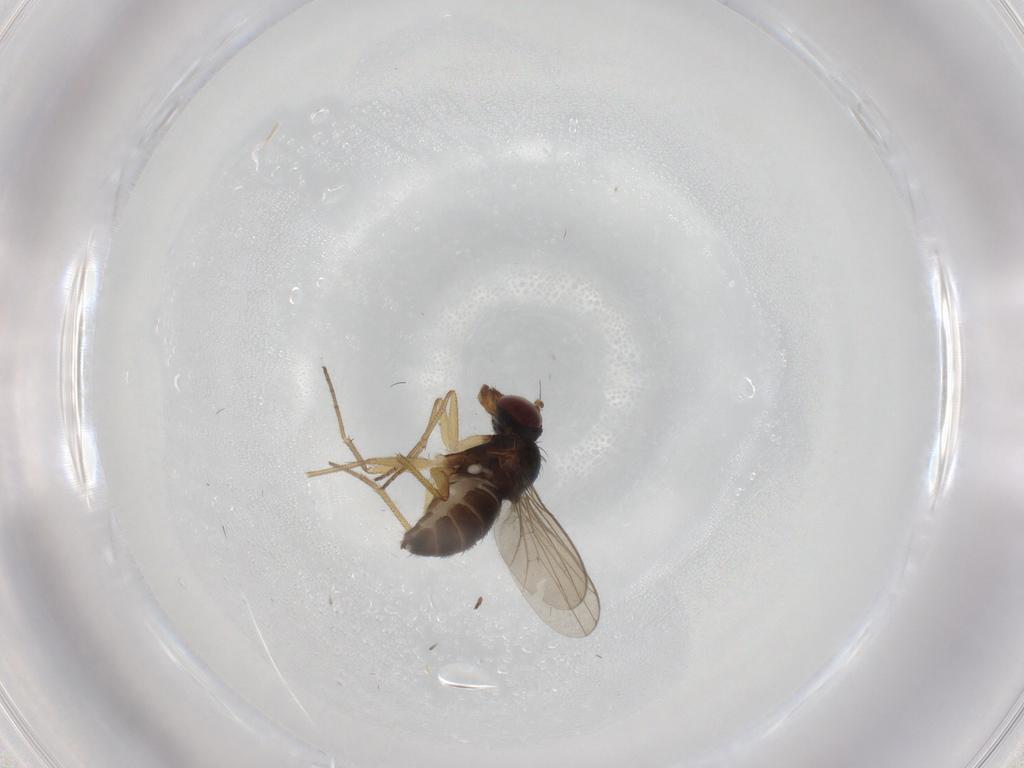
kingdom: Animalia
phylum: Arthropoda
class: Insecta
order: Diptera
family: Dolichopodidae
